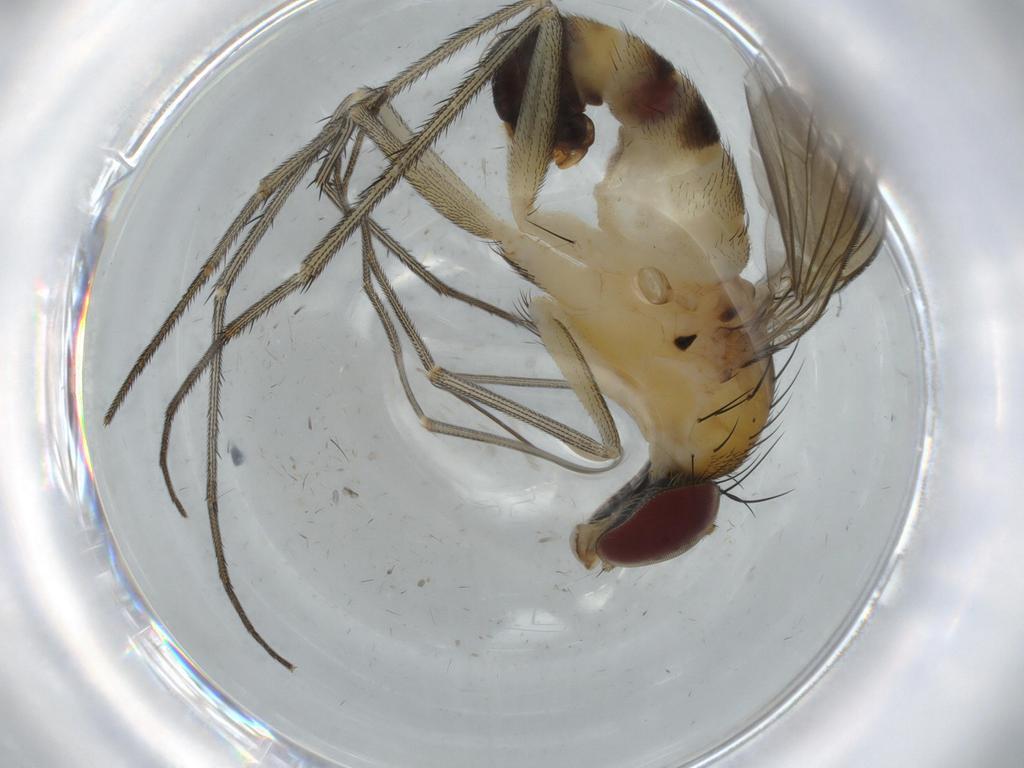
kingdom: Animalia
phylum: Arthropoda
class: Insecta
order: Diptera
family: Dolichopodidae
